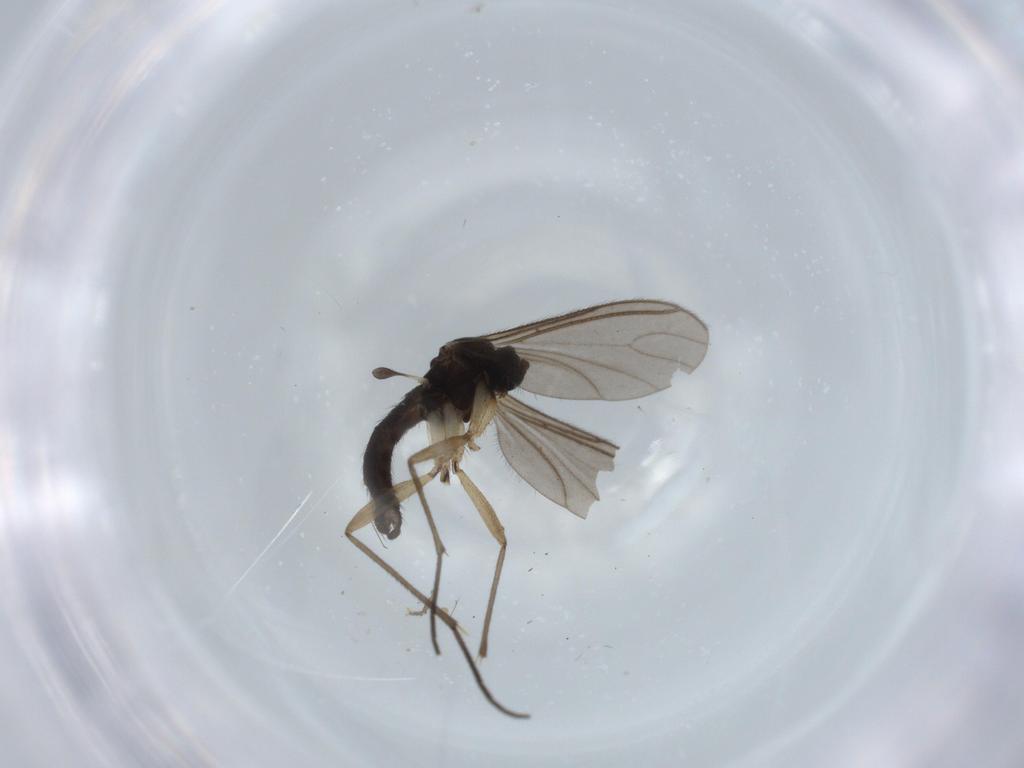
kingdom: Animalia
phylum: Arthropoda
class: Insecta
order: Diptera
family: Sciaridae
